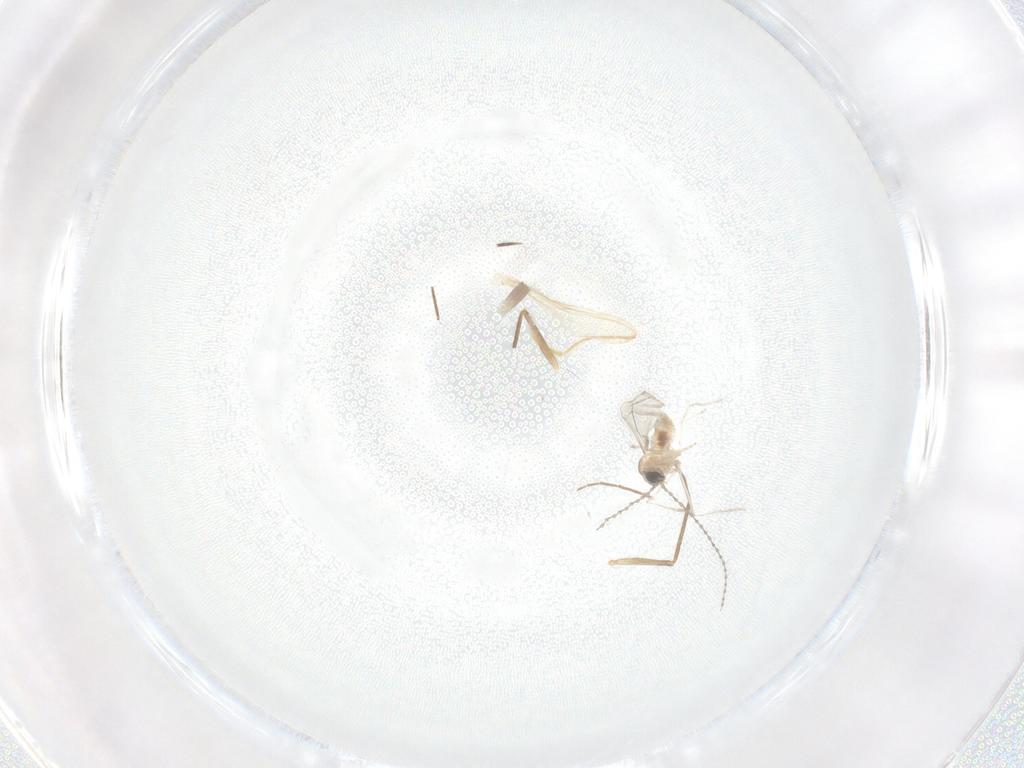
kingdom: Animalia
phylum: Arthropoda
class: Insecta
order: Diptera
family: Cecidomyiidae
